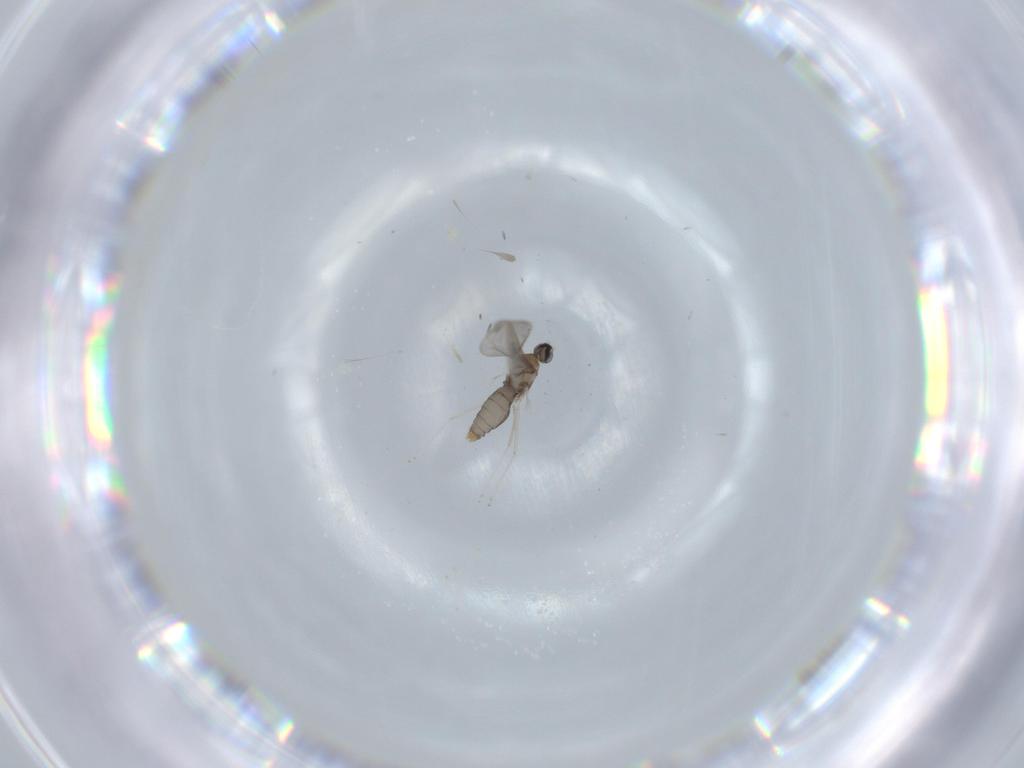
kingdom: Animalia
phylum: Arthropoda
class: Insecta
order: Diptera
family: Cecidomyiidae
